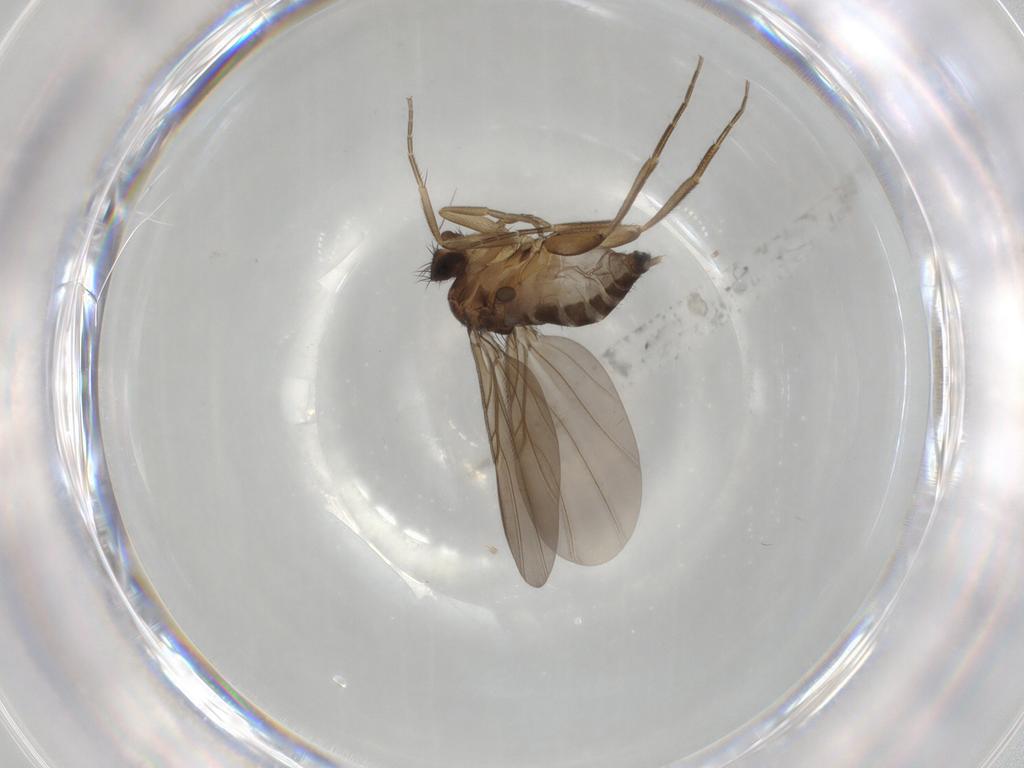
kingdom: Animalia
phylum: Arthropoda
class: Insecta
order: Diptera
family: Phoridae
